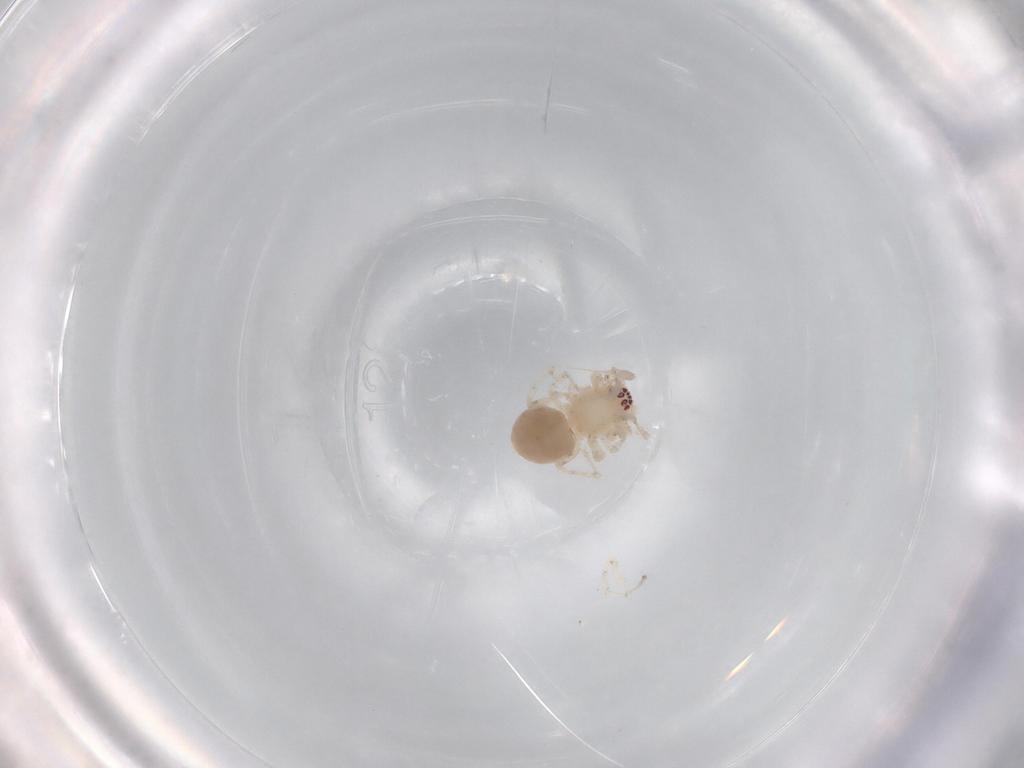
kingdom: Animalia
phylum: Arthropoda
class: Arachnida
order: Araneae
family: Anyphaenidae
